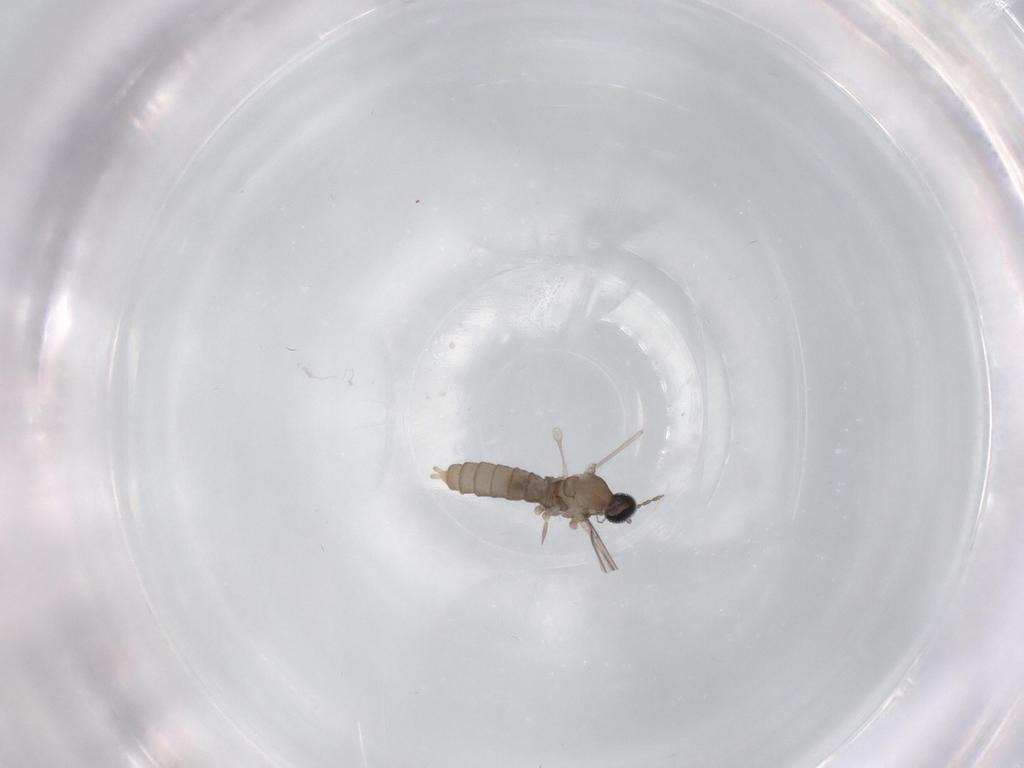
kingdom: Animalia
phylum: Arthropoda
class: Insecta
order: Diptera
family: Cecidomyiidae
